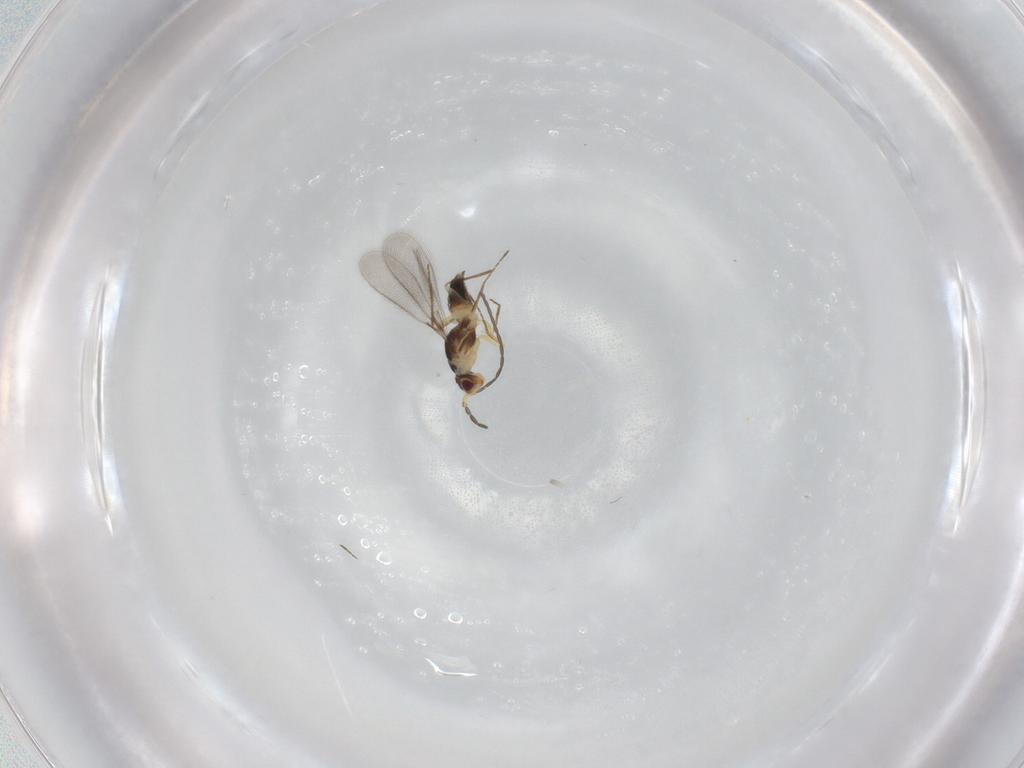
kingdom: Animalia
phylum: Arthropoda
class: Insecta
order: Hymenoptera
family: Mymaridae
